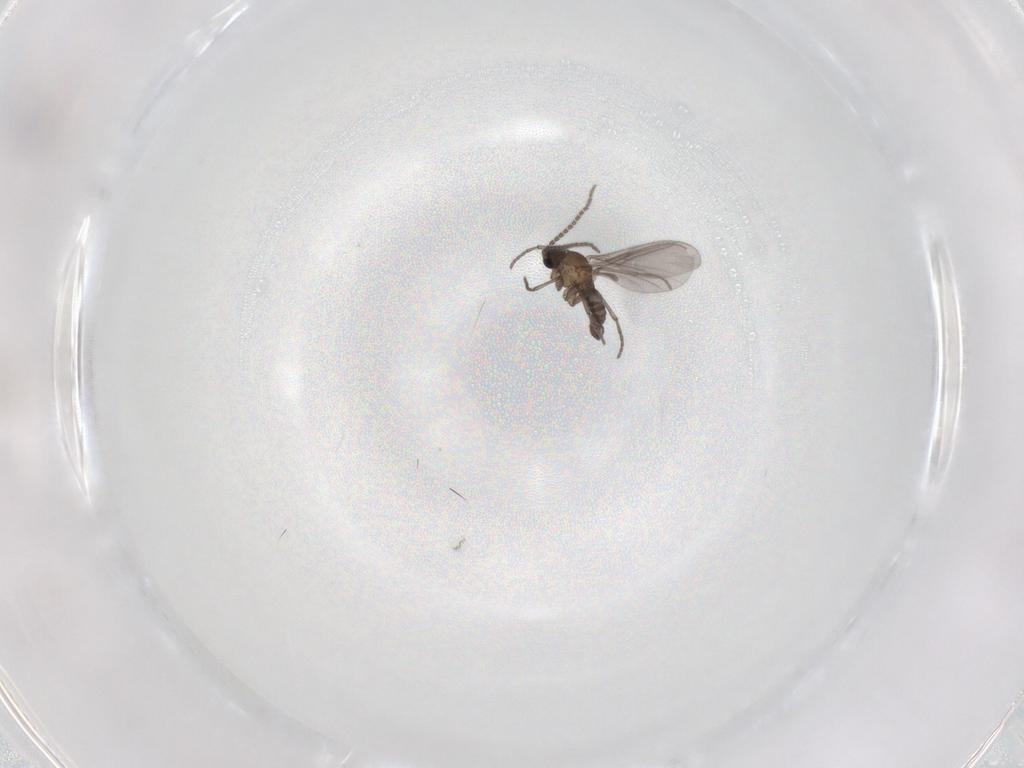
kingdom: Animalia
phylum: Arthropoda
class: Insecta
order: Diptera
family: Sciaridae
